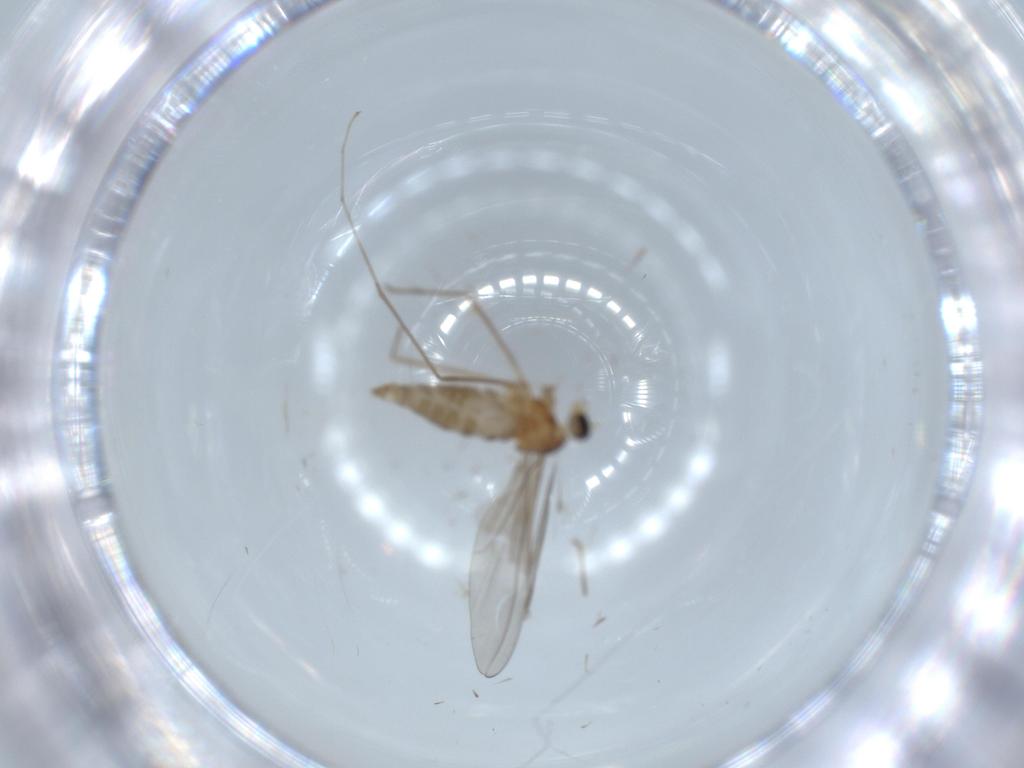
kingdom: Animalia
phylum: Arthropoda
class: Insecta
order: Diptera
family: Cecidomyiidae
